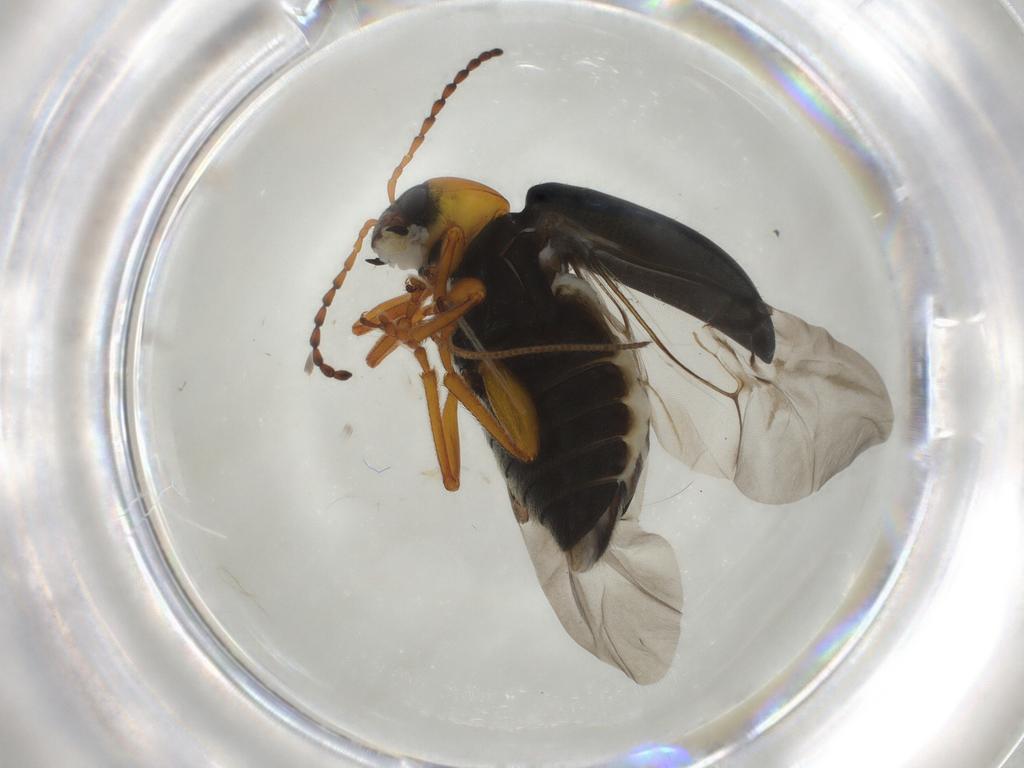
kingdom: Animalia
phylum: Arthropoda
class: Insecta
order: Coleoptera
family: Chrysomelidae
